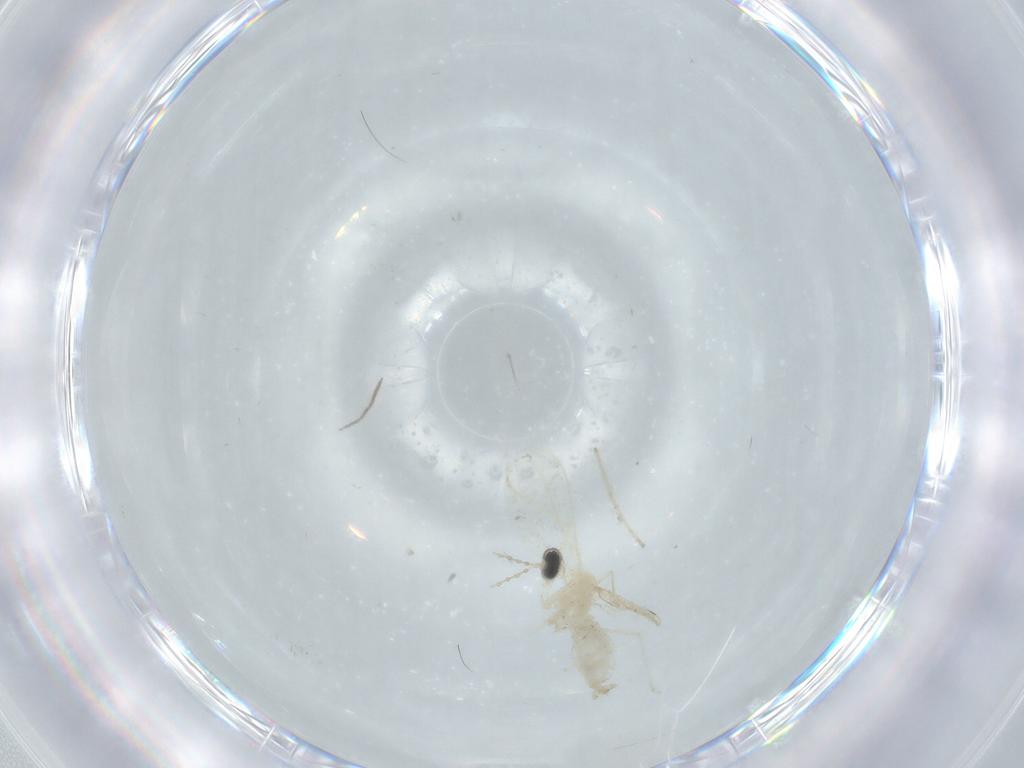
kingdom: Animalia
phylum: Arthropoda
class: Insecta
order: Diptera
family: Cecidomyiidae
